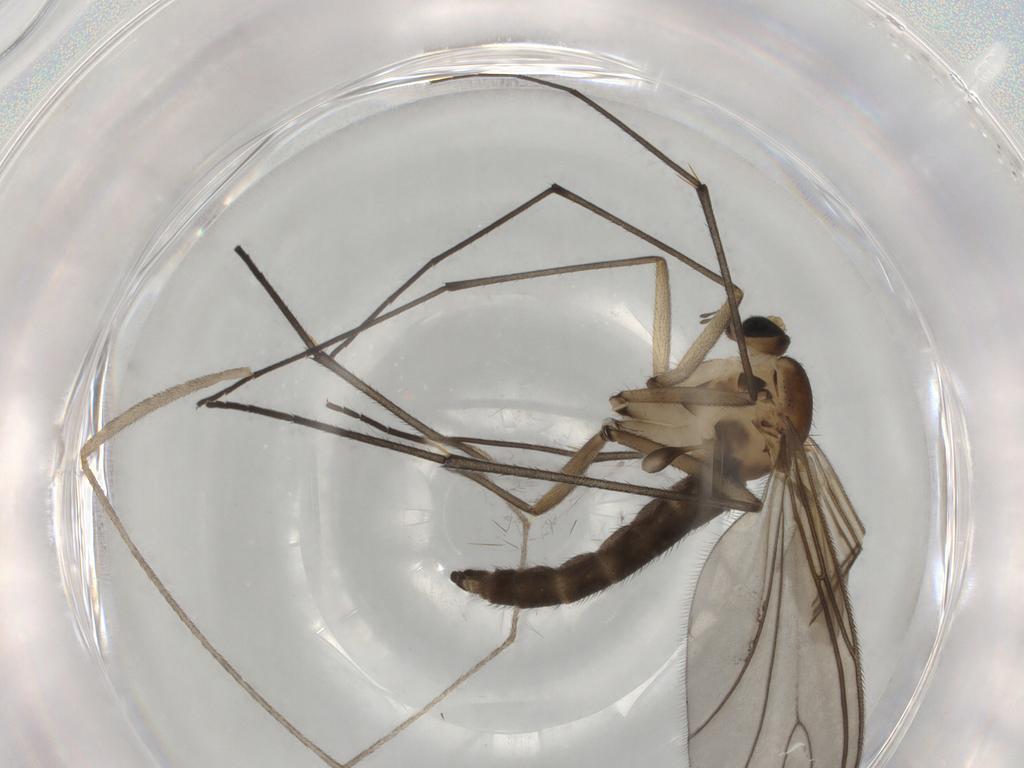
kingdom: Animalia
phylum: Arthropoda
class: Insecta
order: Diptera
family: Lauxaniidae
